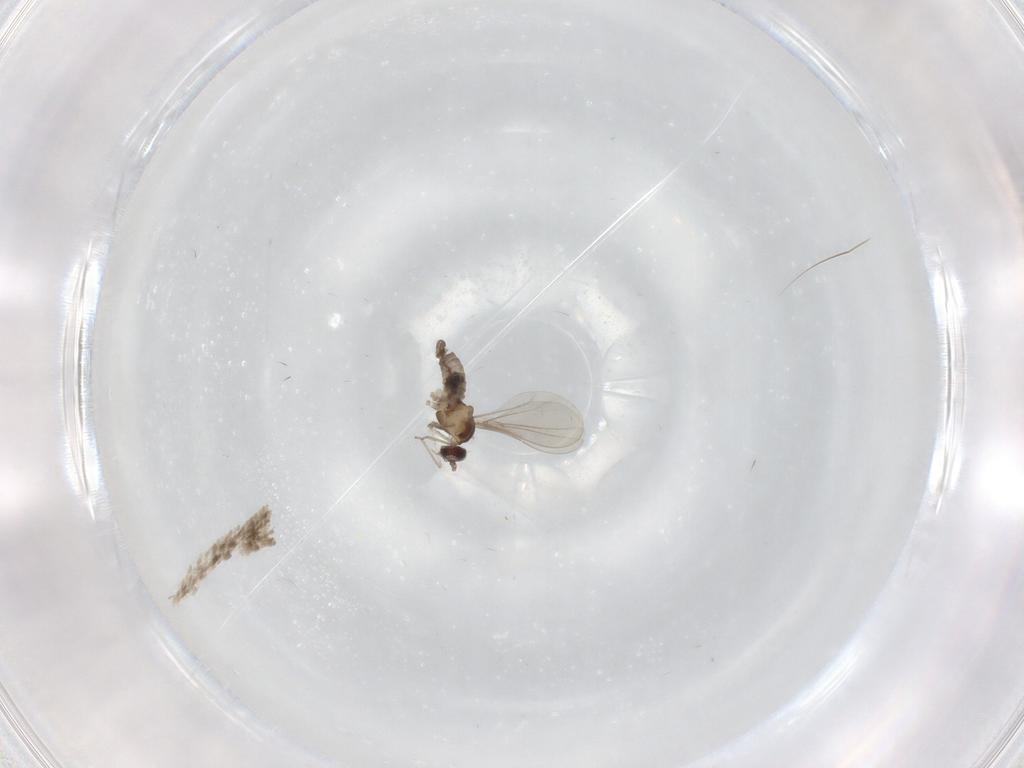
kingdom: Animalia
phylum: Arthropoda
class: Insecta
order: Diptera
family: Cecidomyiidae
